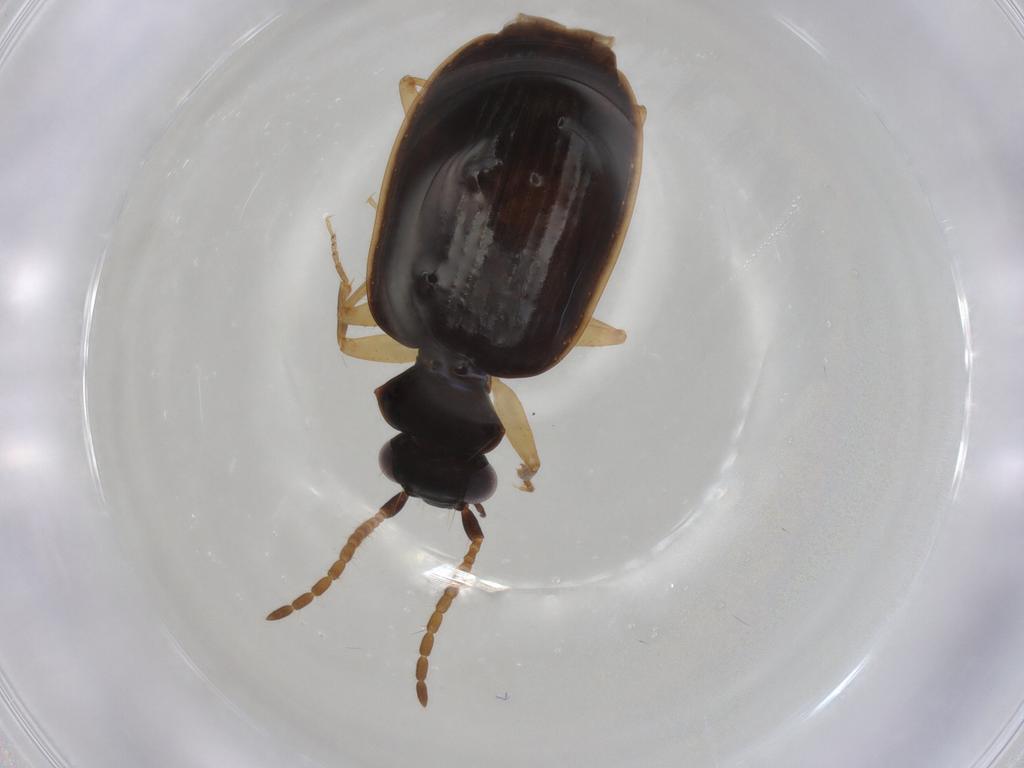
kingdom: Animalia
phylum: Arthropoda
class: Insecta
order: Coleoptera
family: Carabidae
